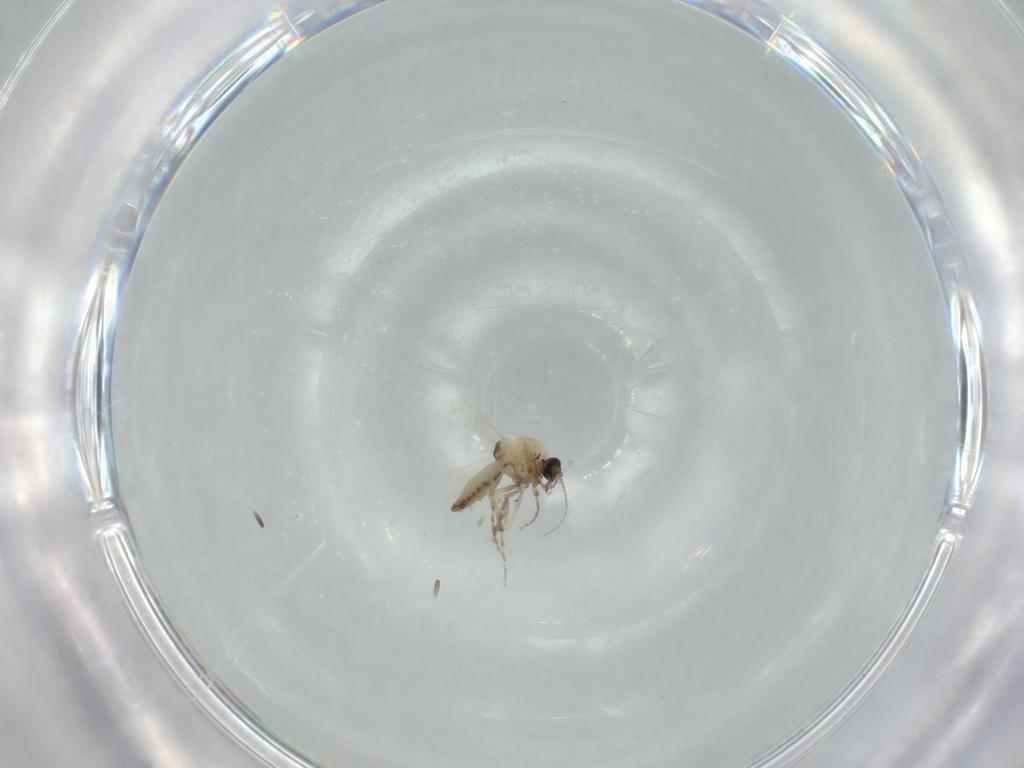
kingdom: Animalia
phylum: Arthropoda
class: Insecta
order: Diptera
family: Ceratopogonidae
